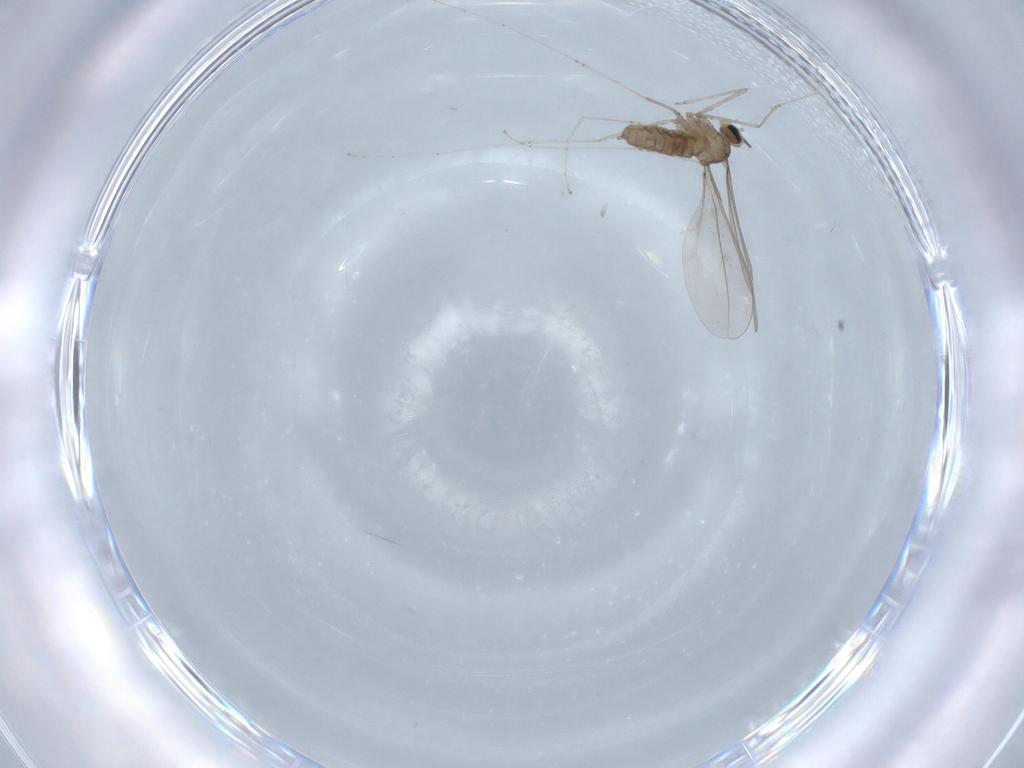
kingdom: Animalia
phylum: Arthropoda
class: Insecta
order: Diptera
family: Cecidomyiidae
